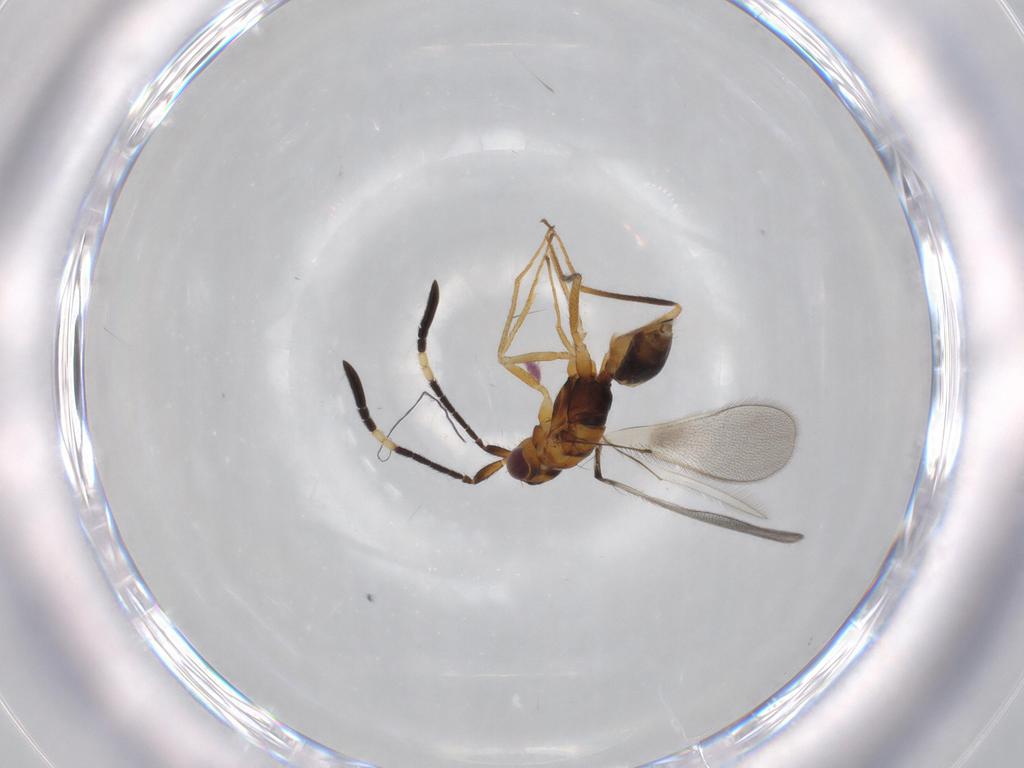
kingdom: Animalia
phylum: Arthropoda
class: Insecta
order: Hymenoptera
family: Mymaridae
